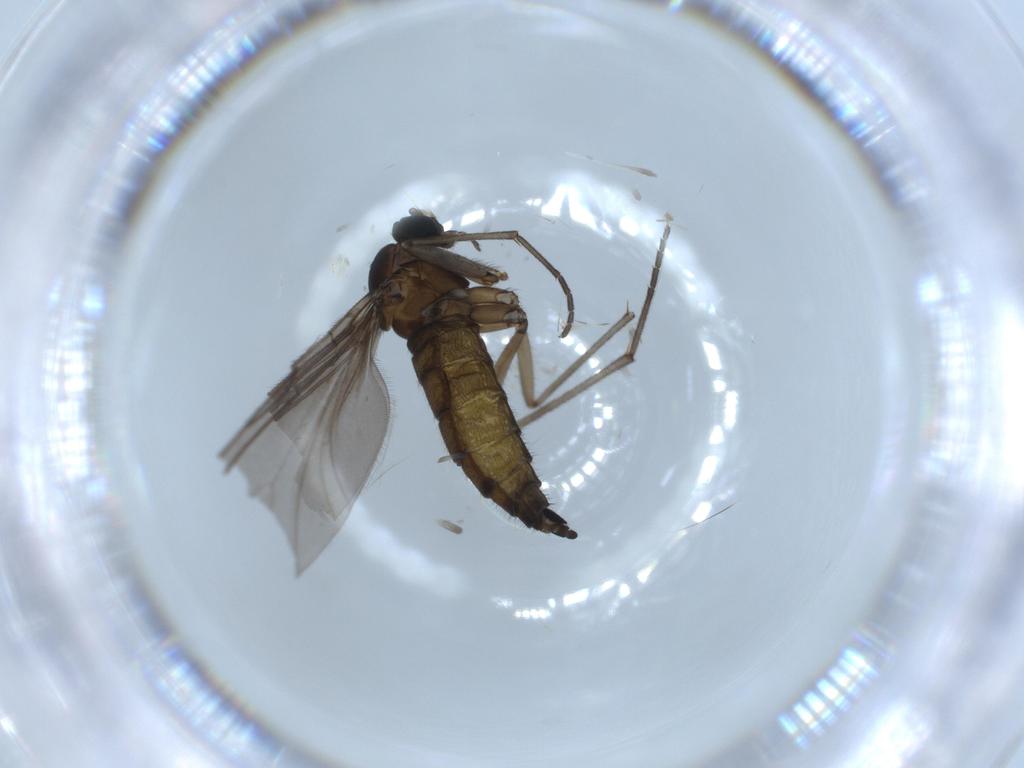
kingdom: Animalia
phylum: Arthropoda
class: Insecta
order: Diptera
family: Sciaridae
